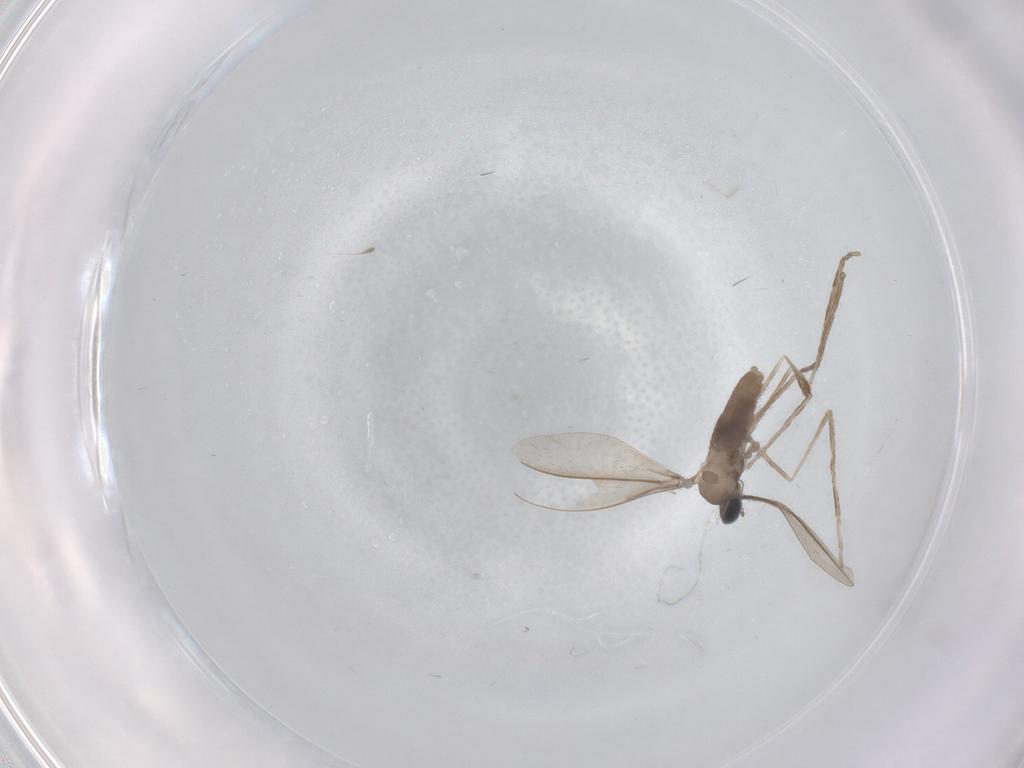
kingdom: Animalia
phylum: Arthropoda
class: Insecta
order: Diptera
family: Cecidomyiidae
